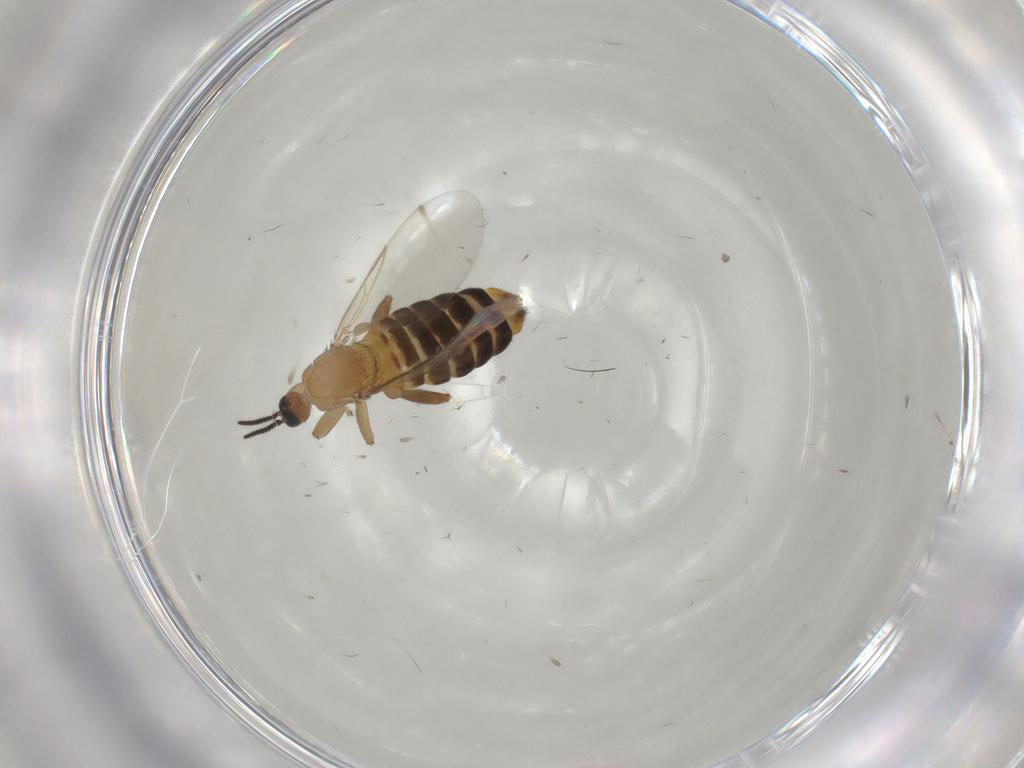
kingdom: Animalia
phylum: Arthropoda
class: Insecta
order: Diptera
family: Scatopsidae
